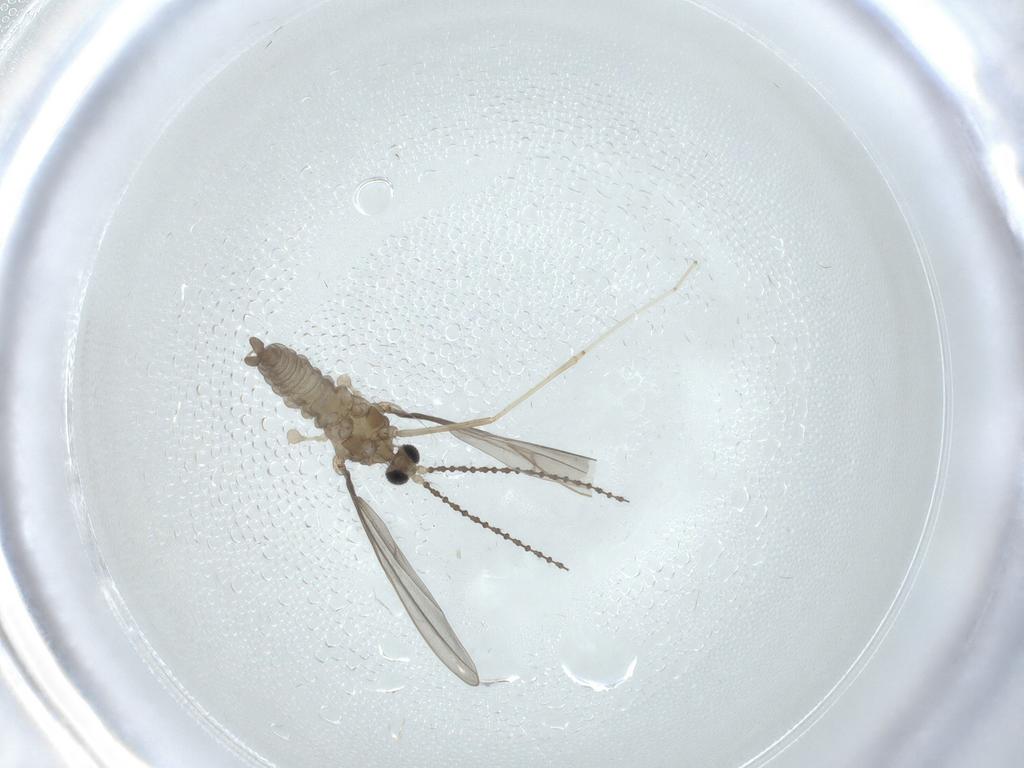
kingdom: Animalia
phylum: Arthropoda
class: Insecta
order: Diptera
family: Cecidomyiidae
